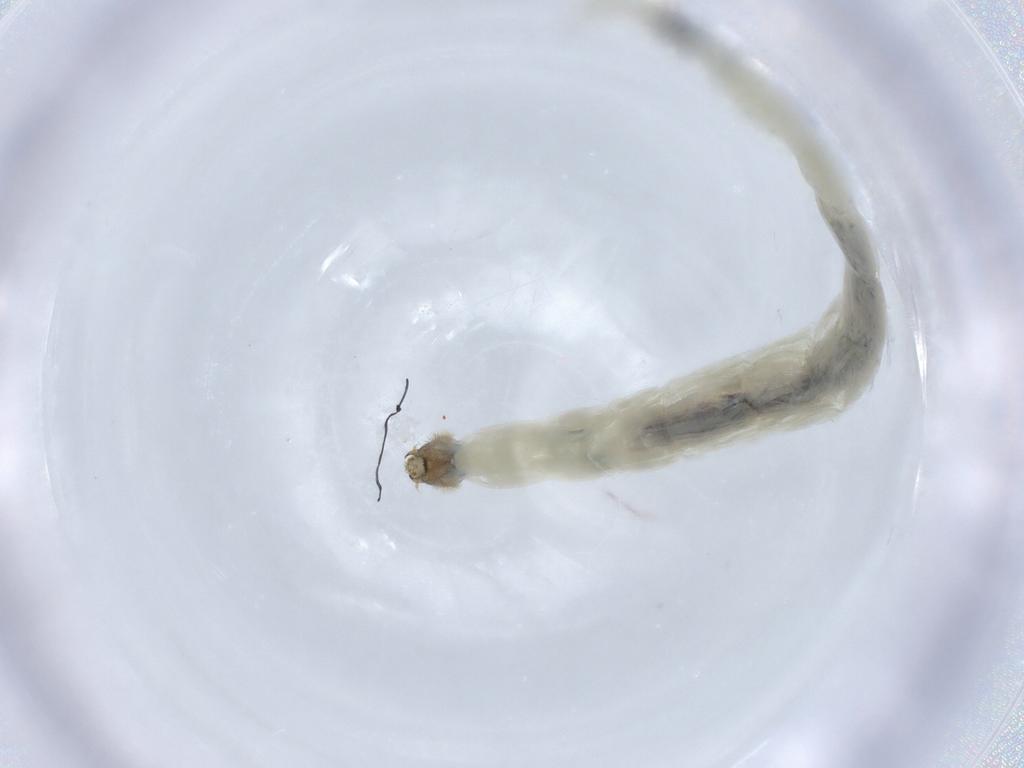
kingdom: Animalia
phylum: Arthropoda
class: Insecta
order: Diptera
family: Chironomidae
